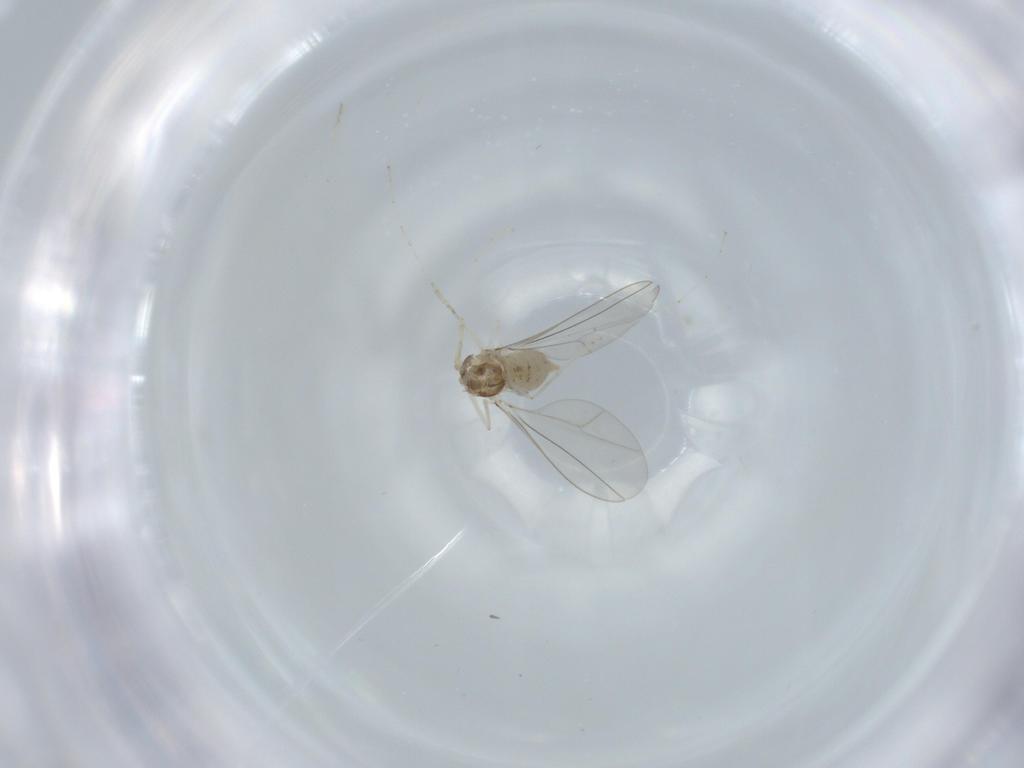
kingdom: Animalia
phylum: Arthropoda
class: Insecta
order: Diptera
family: Cecidomyiidae
